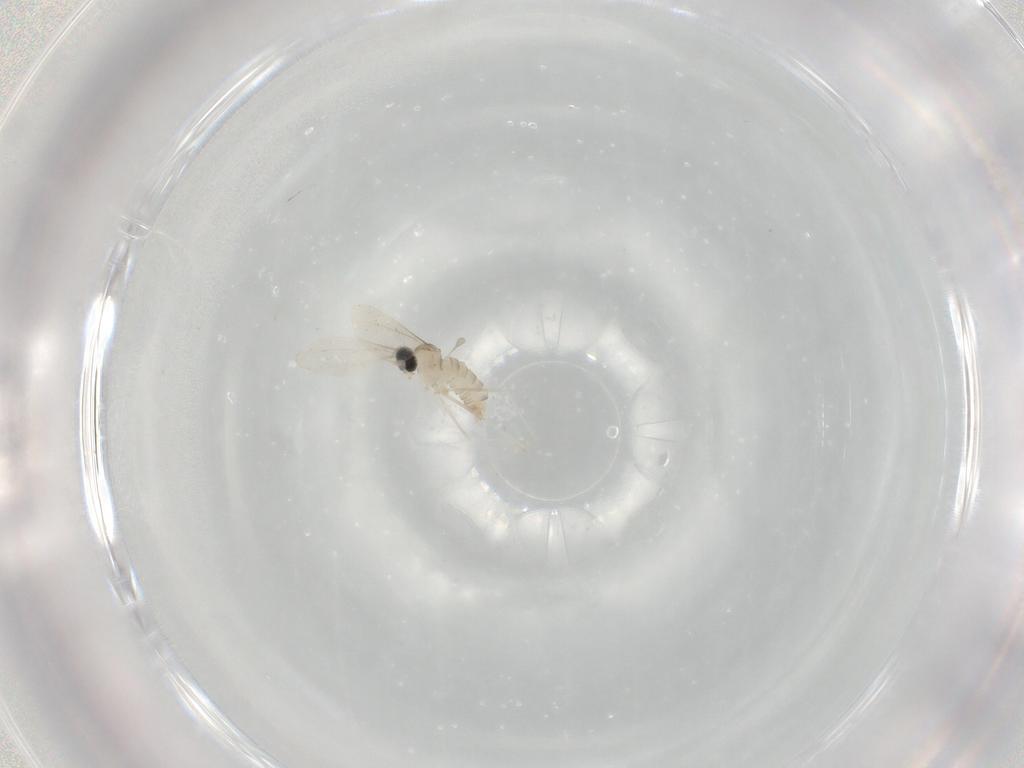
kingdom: Animalia
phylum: Arthropoda
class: Insecta
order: Diptera
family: Cecidomyiidae
